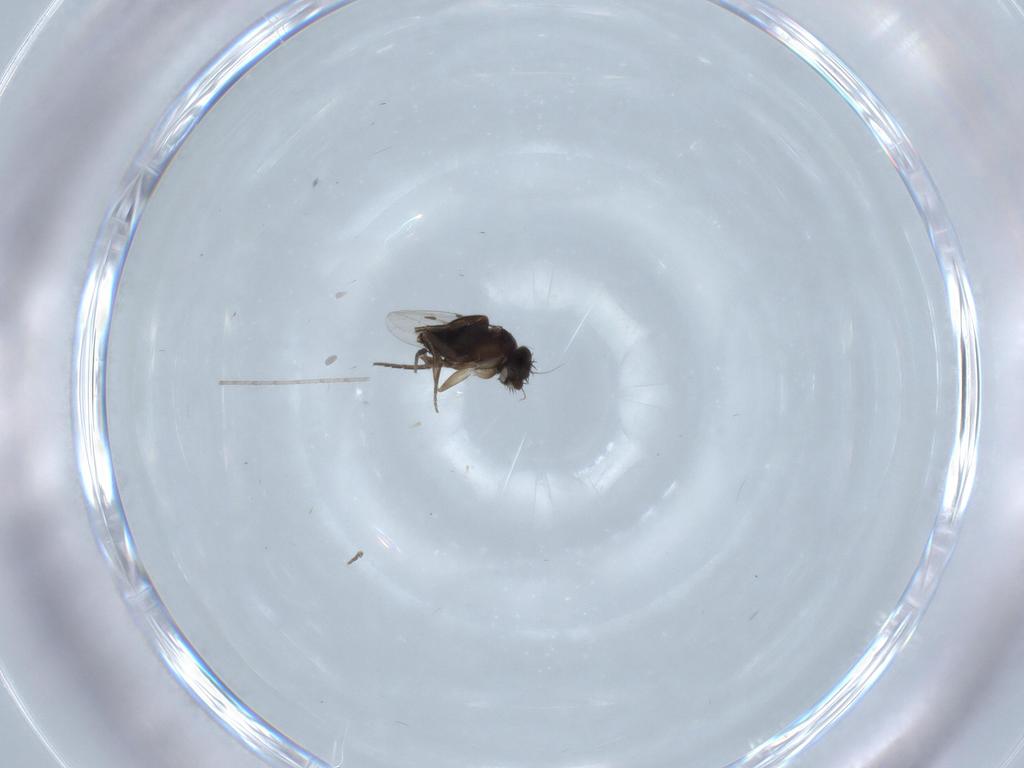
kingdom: Animalia
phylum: Arthropoda
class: Insecta
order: Diptera
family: Phoridae
